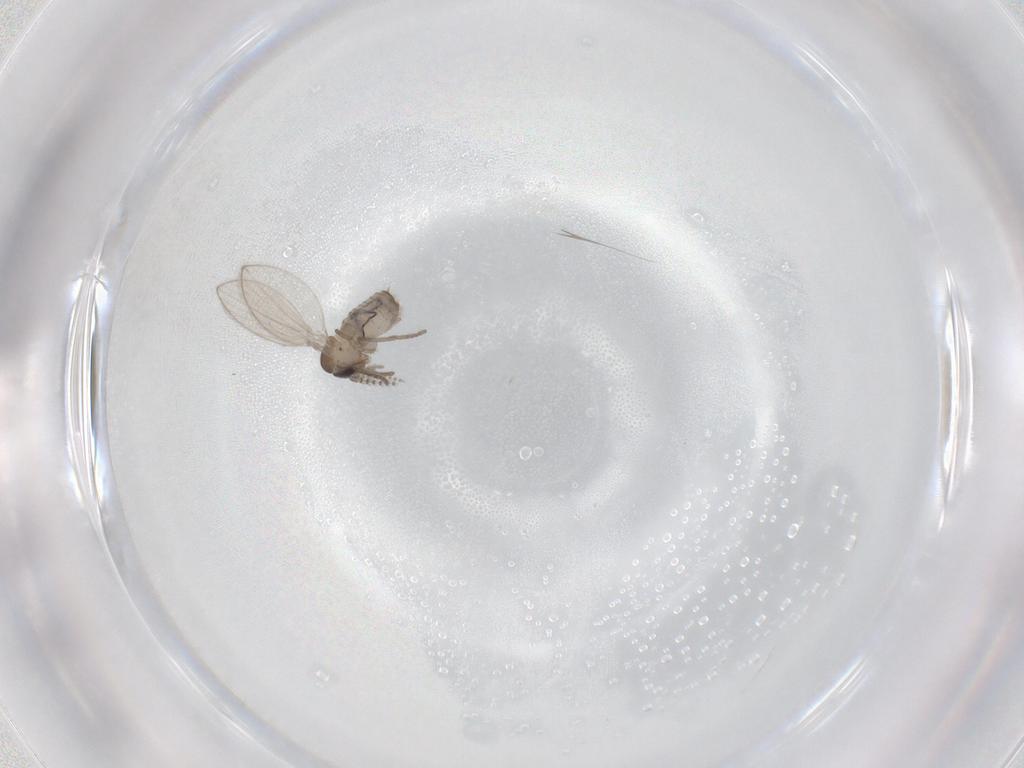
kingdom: Animalia
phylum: Arthropoda
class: Insecta
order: Diptera
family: Psychodidae
